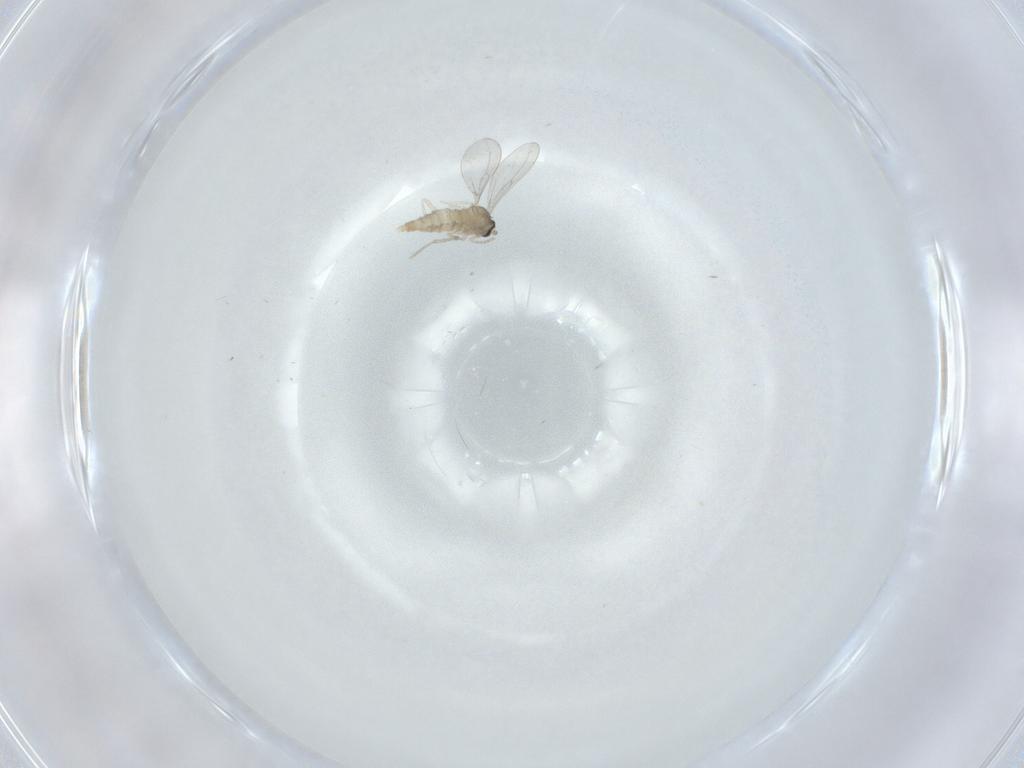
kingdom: Animalia
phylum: Arthropoda
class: Insecta
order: Diptera
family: Cecidomyiidae
